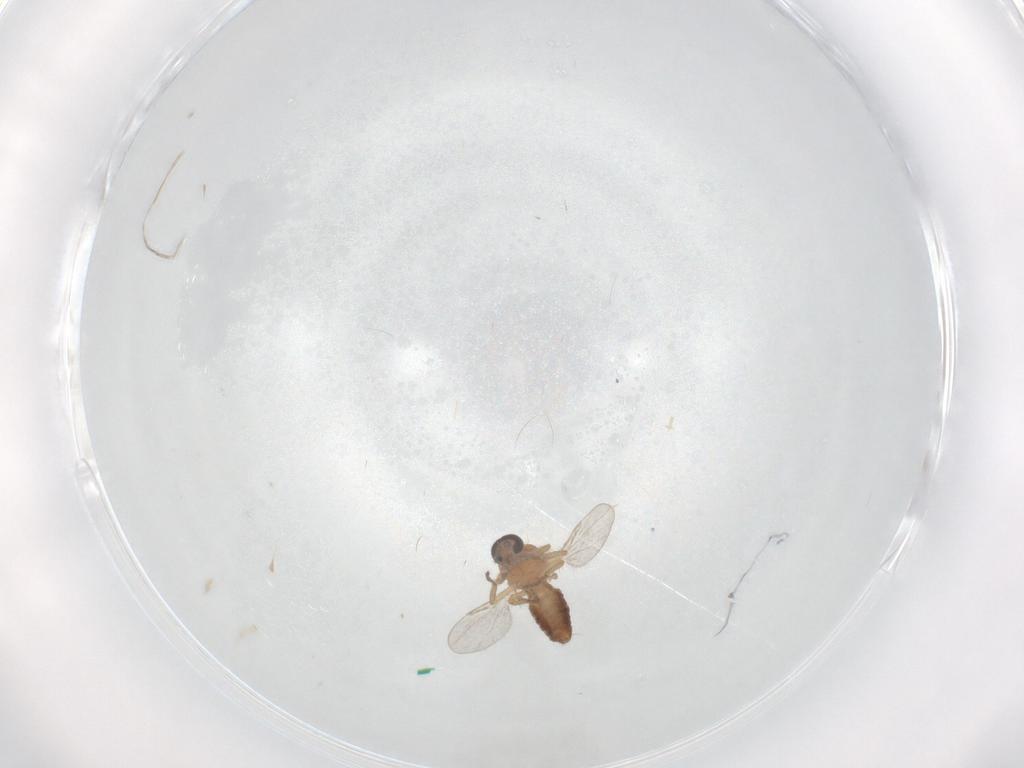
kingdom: Animalia
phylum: Arthropoda
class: Insecta
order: Diptera
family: Ceratopogonidae
